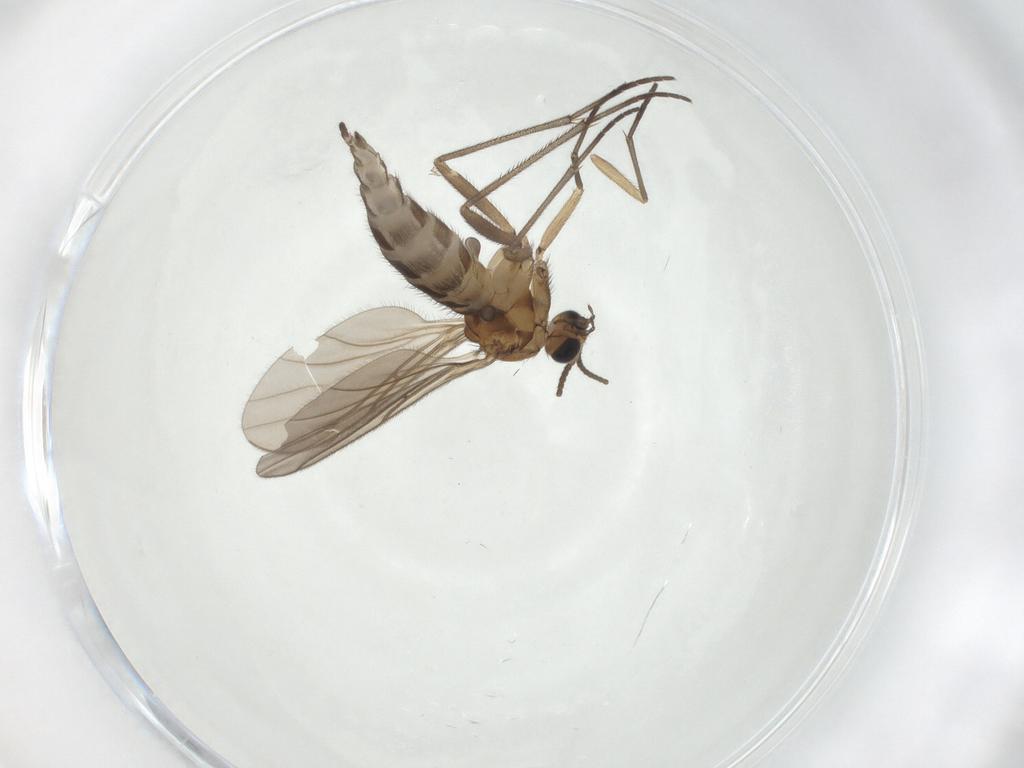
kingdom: Animalia
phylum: Arthropoda
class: Insecta
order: Diptera
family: Sciaridae
